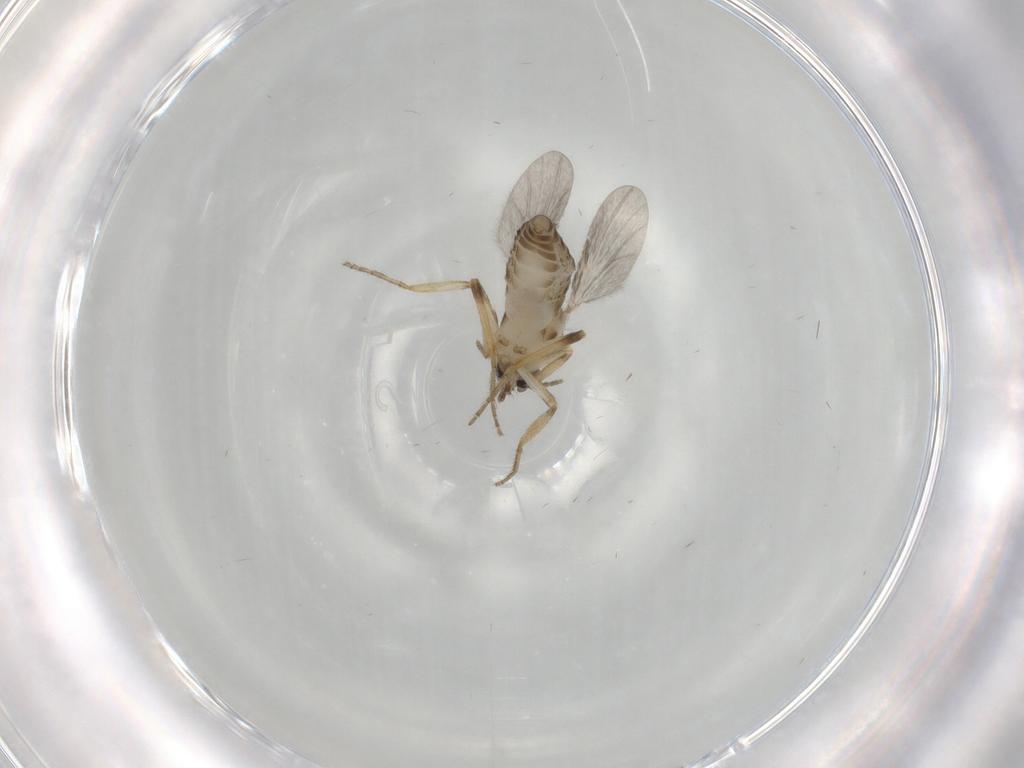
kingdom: Animalia
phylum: Arthropoda
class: Insecta
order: Diptera
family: Ceratopogonidae
